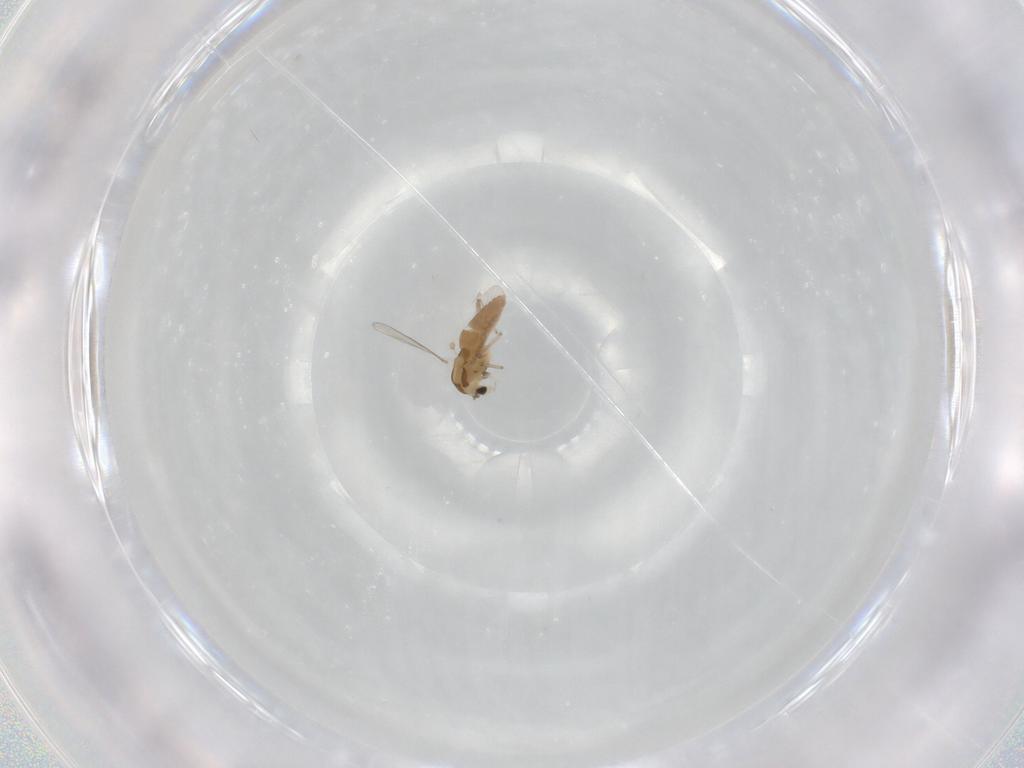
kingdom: Animalia
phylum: Arthropoda
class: Insecta
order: Diptera
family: Chironomidae
